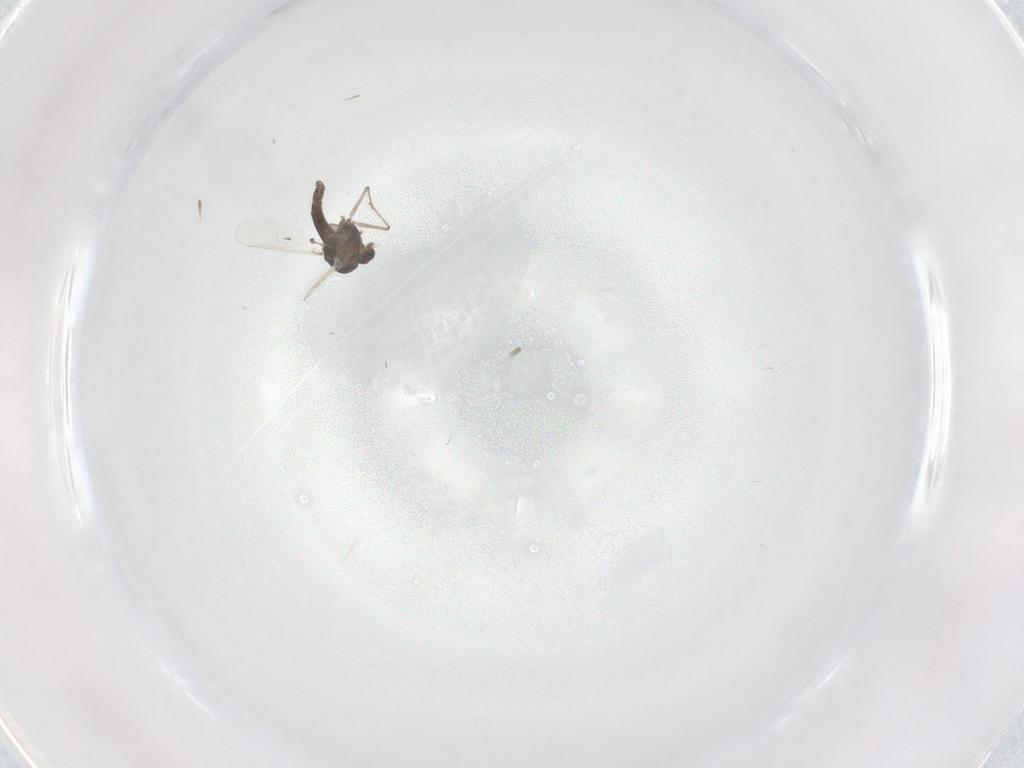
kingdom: Animalia
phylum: Arthropoda
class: Insecta
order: Diptera
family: Chironomidae
